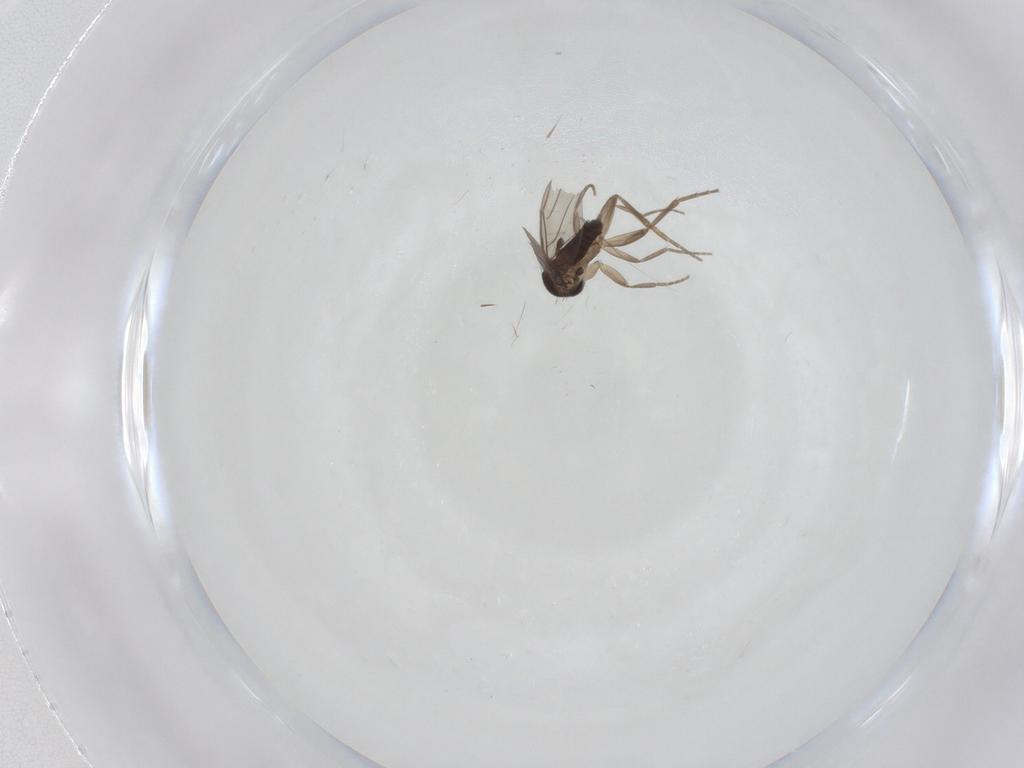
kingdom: Animalia
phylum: Arthropoda
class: Insecta
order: Diptera
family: Phoridae
